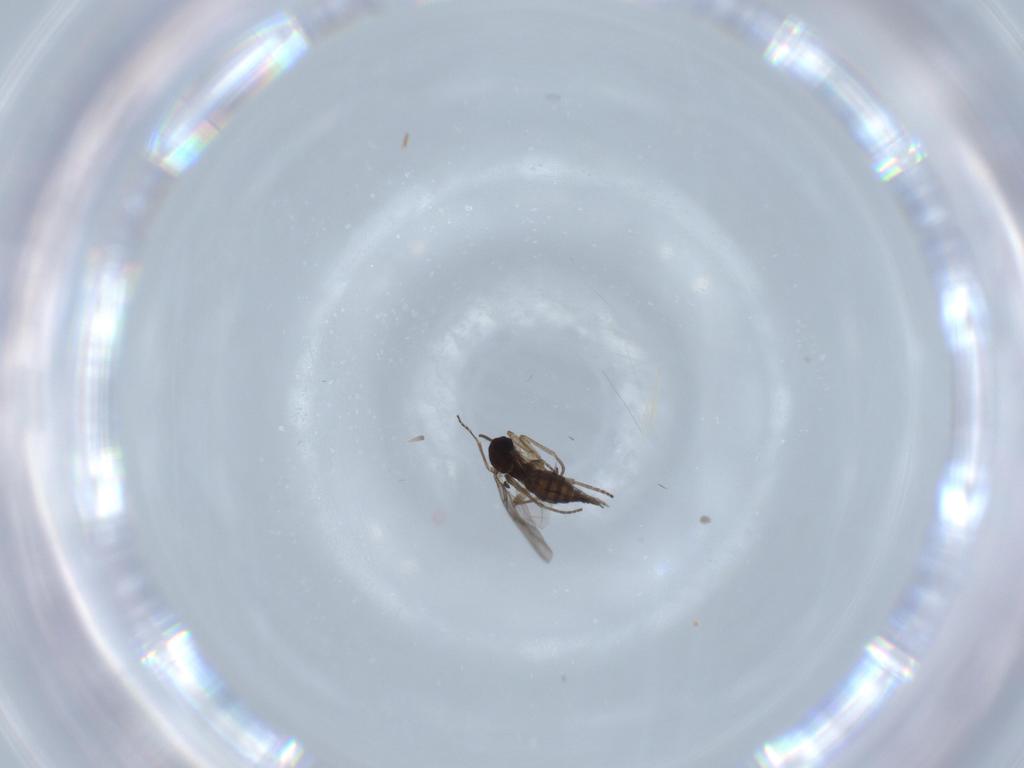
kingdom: Animalia
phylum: Arthropoda
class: Insecta
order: Diptera
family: Sciaridae
